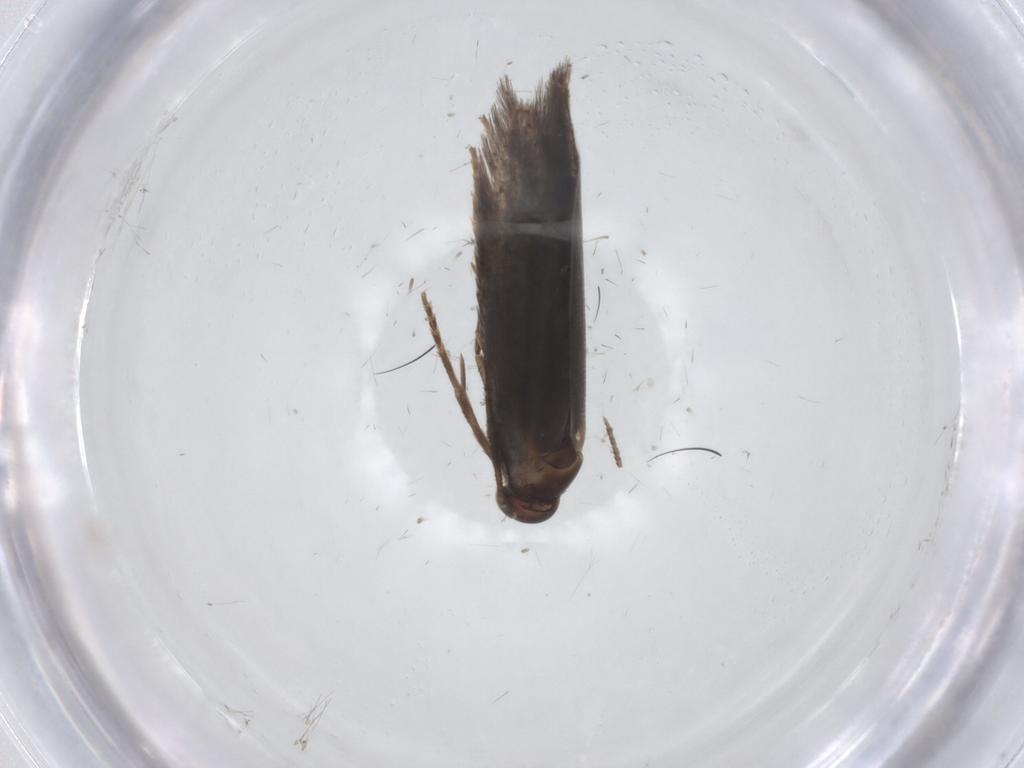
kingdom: Animalia
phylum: Arthropoda
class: Insecta
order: Lepidoptera
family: Elachistidae
